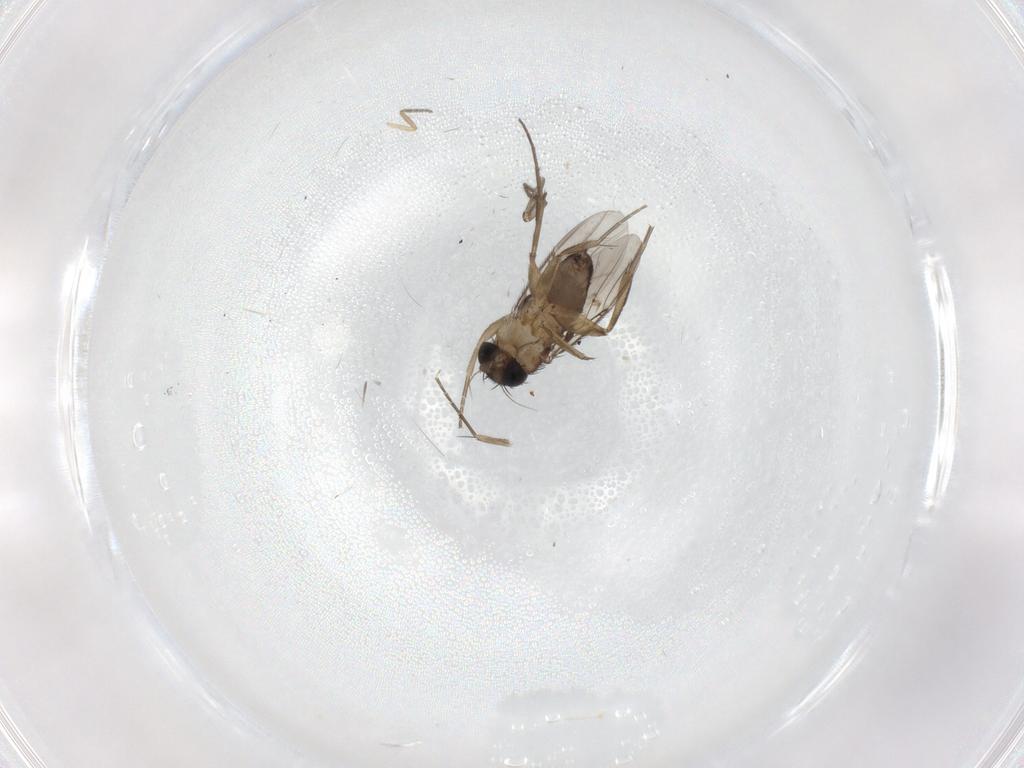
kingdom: Animalia
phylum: Arthropoda
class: Insecta
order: Diptera
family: Phoridae
